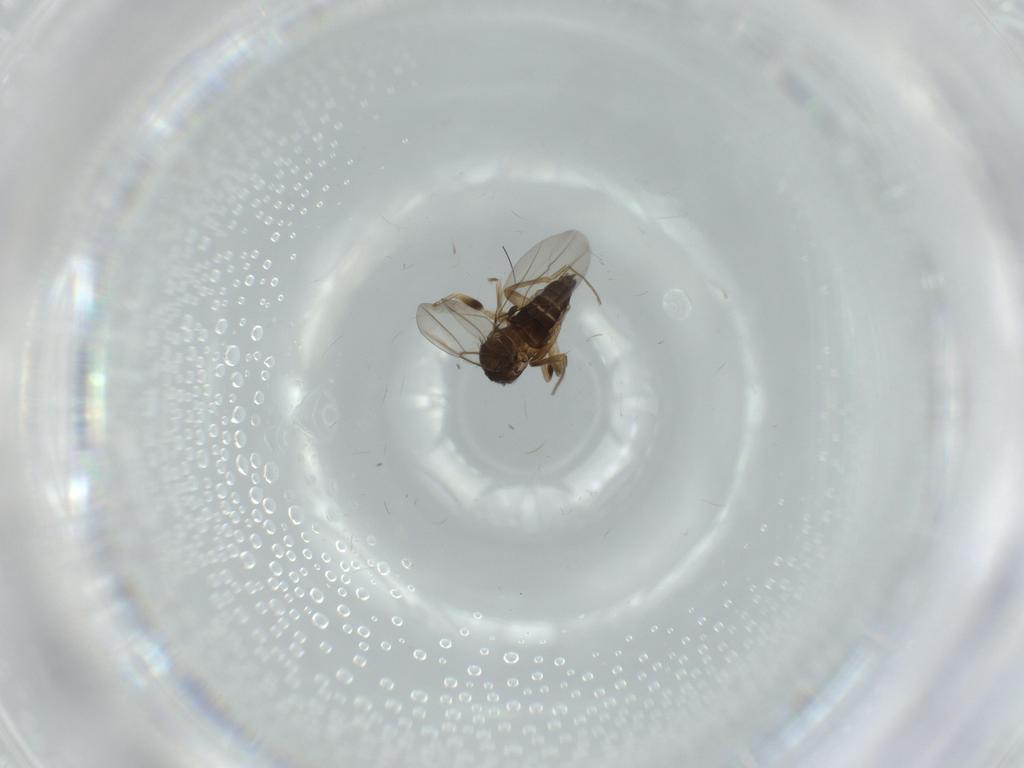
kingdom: Animalia
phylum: Arthropoda
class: Insecta
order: Diptera
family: Phoridae
